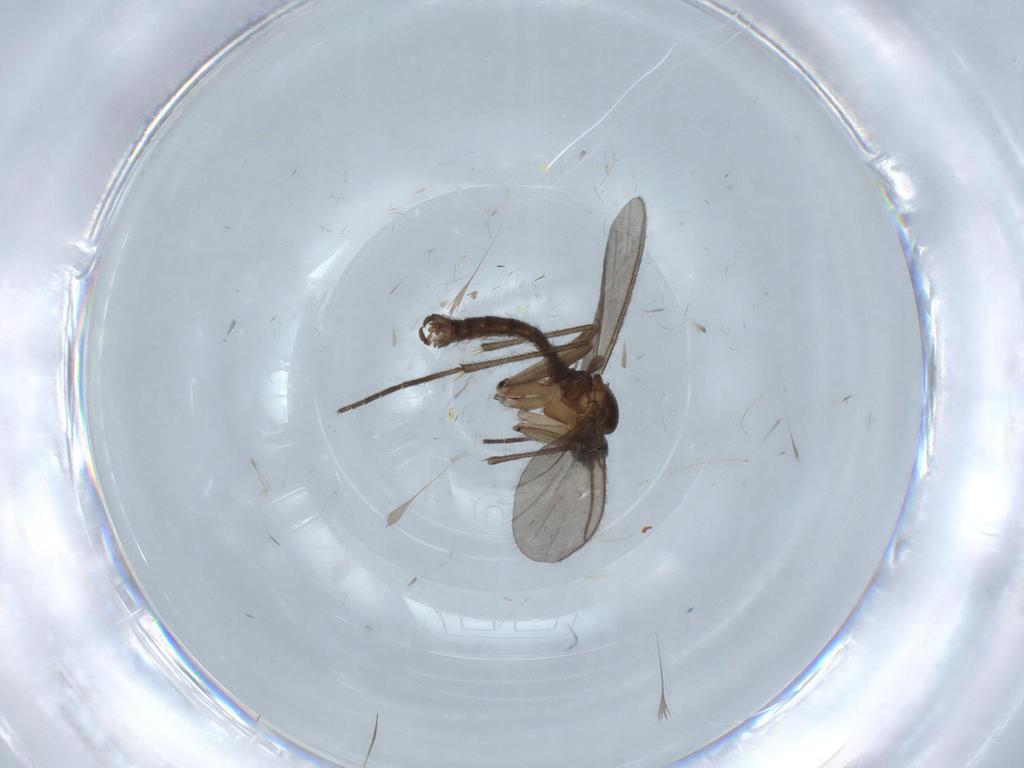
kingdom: Animalia
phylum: Arthropoda
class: Insecta
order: Diptera
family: Cecidomyiidae
